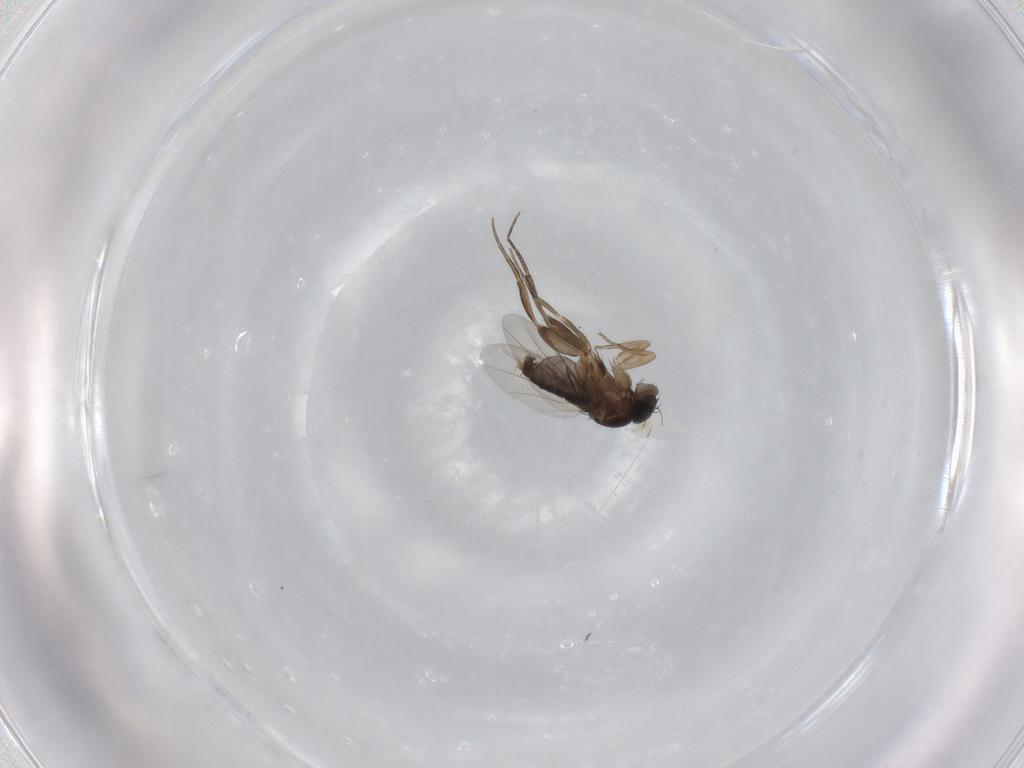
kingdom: Animalia
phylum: Arthropoda
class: Insecta
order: Diptera
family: Phoridae
